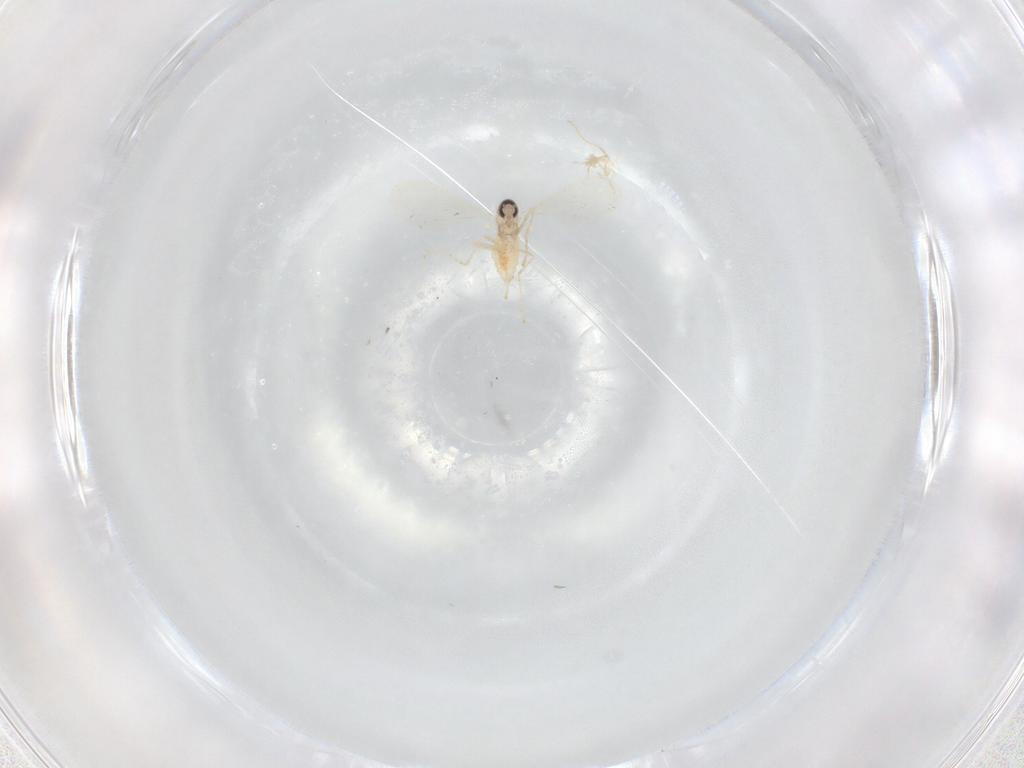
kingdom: Animalia
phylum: Arthropoda
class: Insecta
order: Diptera
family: Cecidomyiidae
